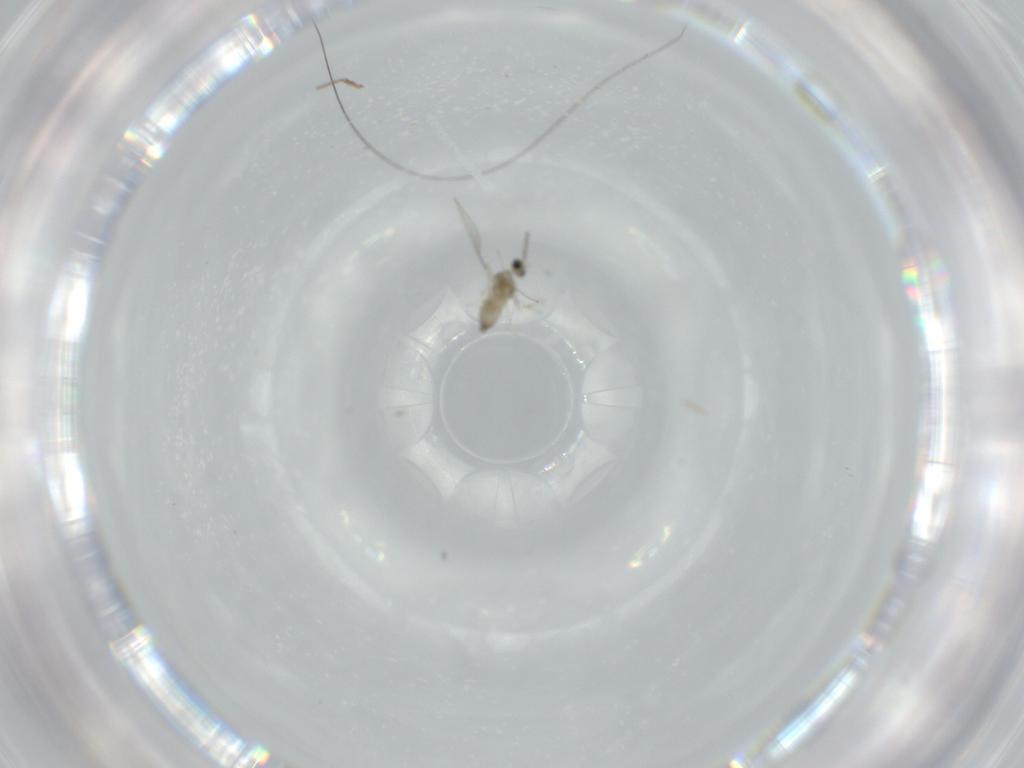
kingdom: Animalia
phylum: Arthropoda
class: Insecta
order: Diptera
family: Cecidomyiidae
